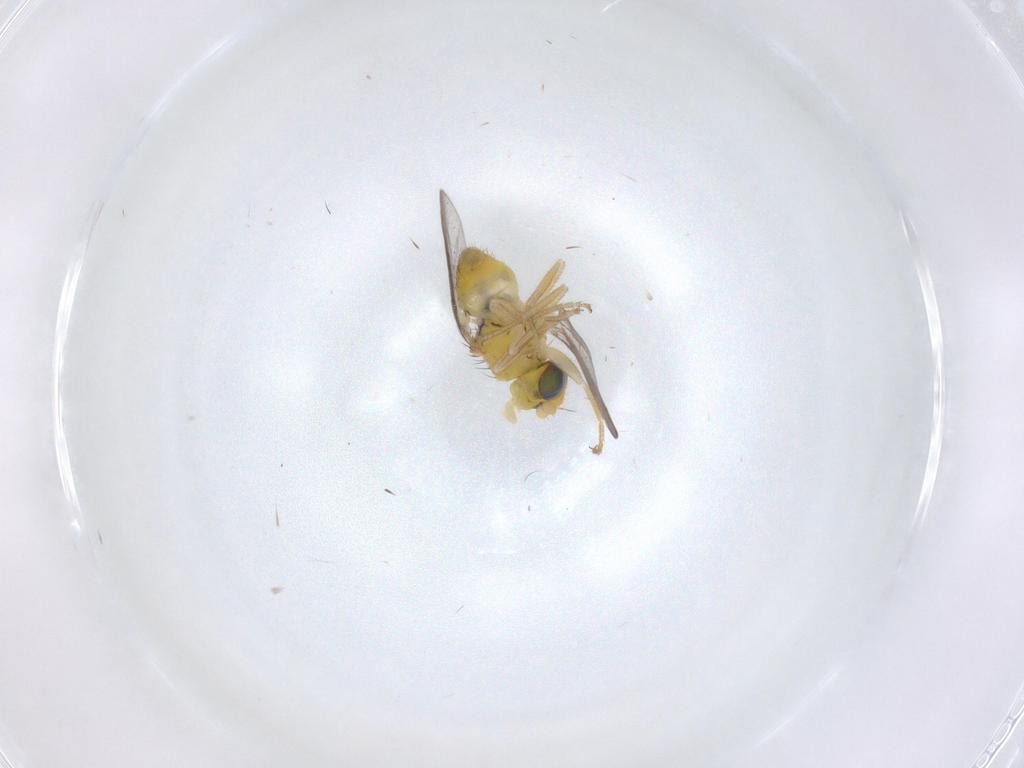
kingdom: Animalia
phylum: Arthropoda
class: Insecta
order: Diptera
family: Chloropidae
